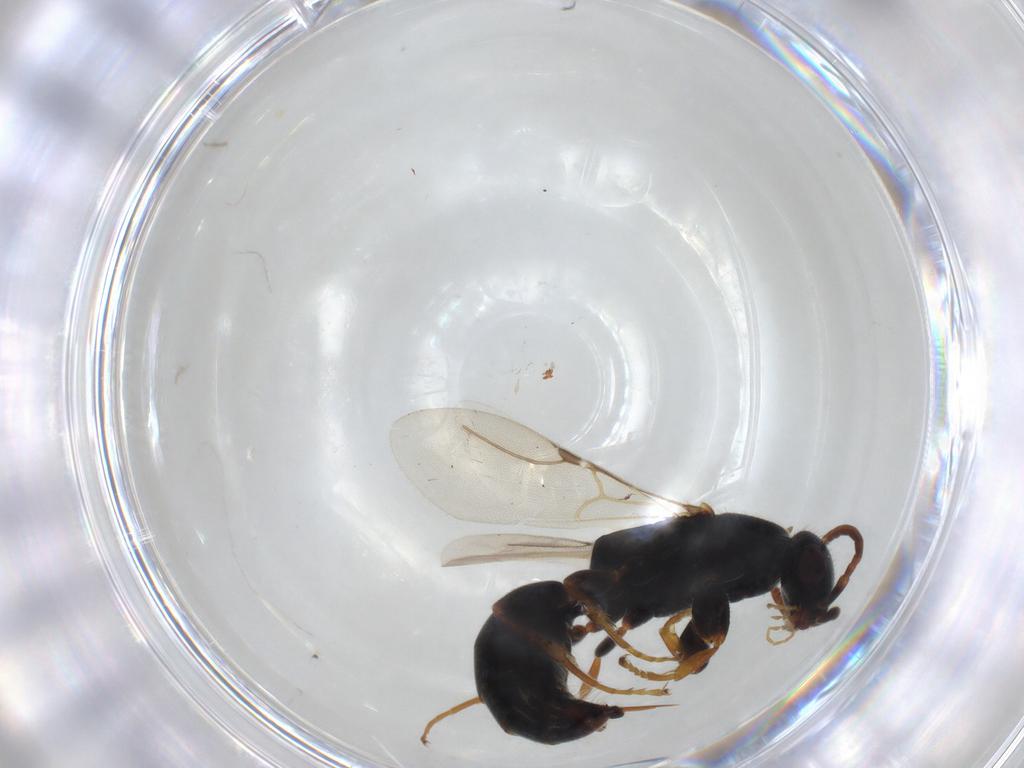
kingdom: Animalia
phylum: Arthropoda
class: Insecta
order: Hymenoptera
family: Bethylidae
